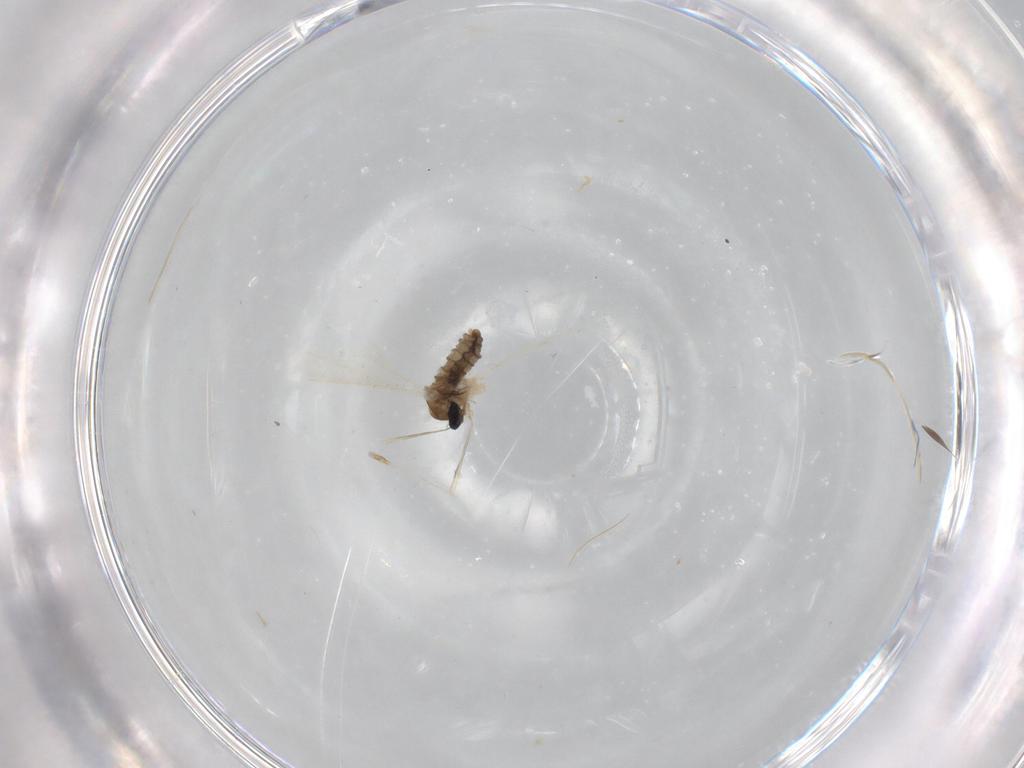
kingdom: Animalia
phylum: Arthropoda
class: Insecta
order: Diptera
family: Cecidomyiidae
